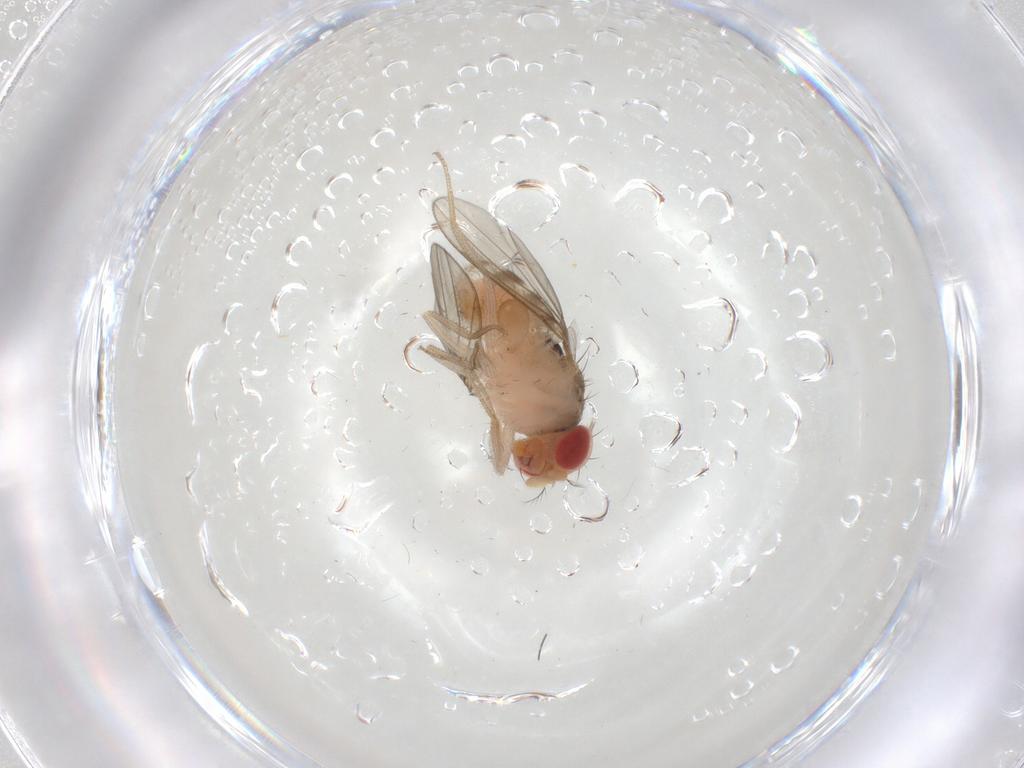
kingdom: Animalia
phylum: Arthropoda
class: Insecta
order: Diptera
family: Drosophilidae
